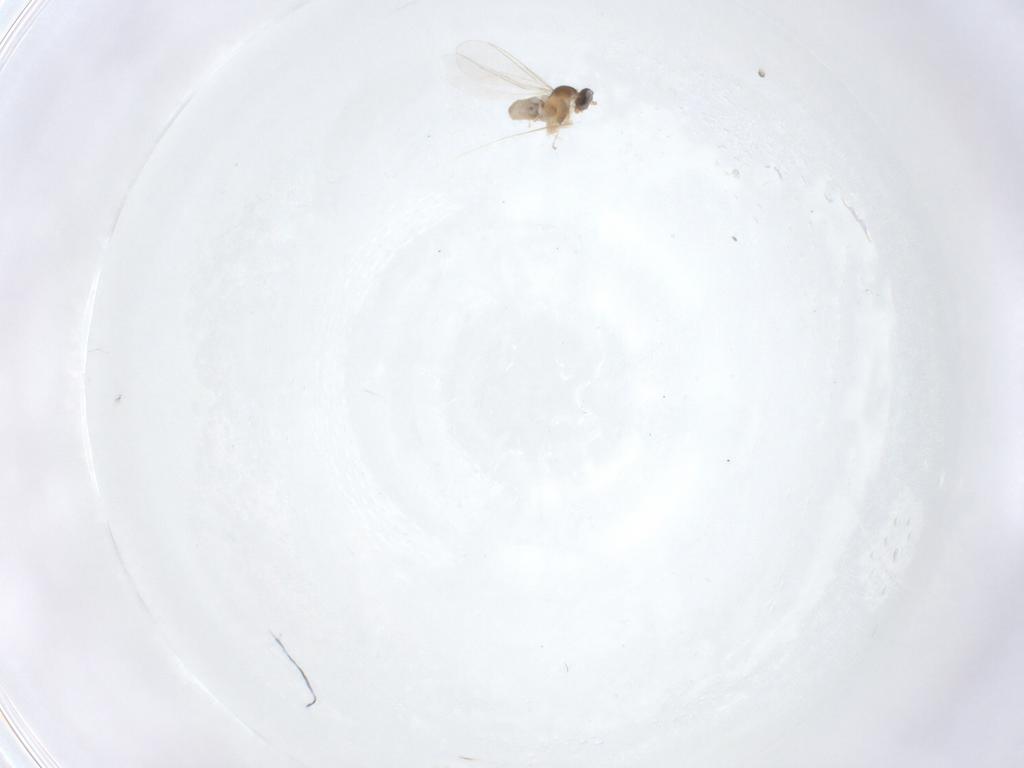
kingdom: Animalia
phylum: Arthropoda
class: Insecta
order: Diptera
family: Cecidomyiidae
